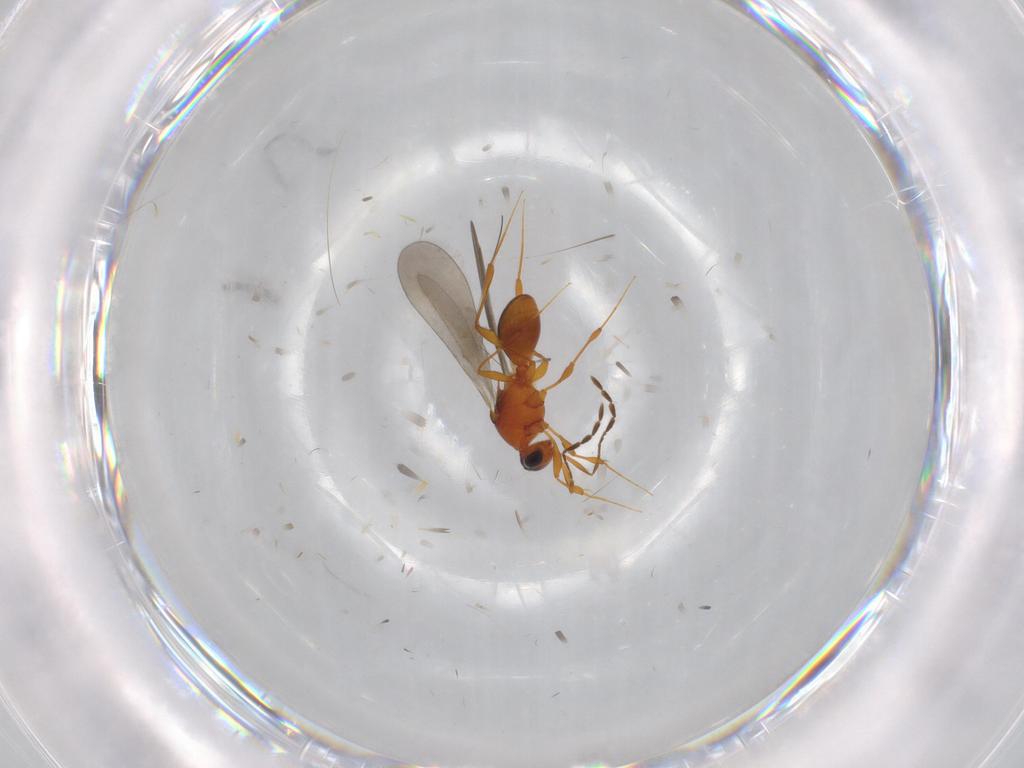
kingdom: Animalia
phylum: Arthropoda
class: Insecta
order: Hymenoptera
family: Platygastridae
